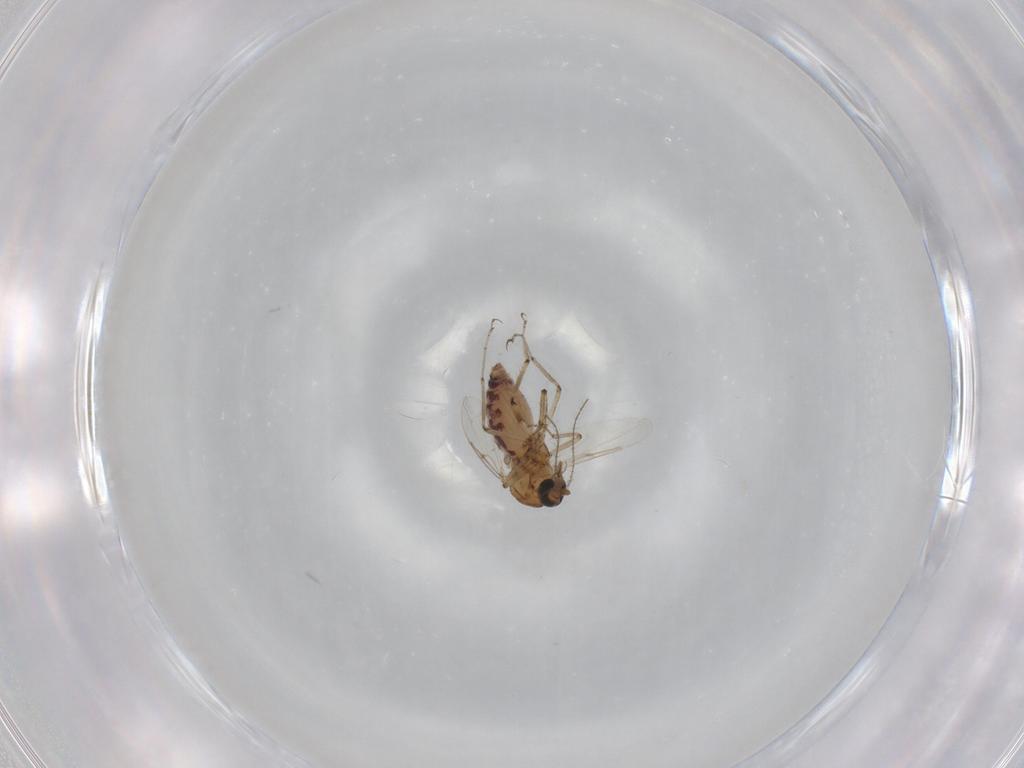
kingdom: Animalia
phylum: Arthropoda
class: Insecta
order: Diptera
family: Ceratopogonidae
